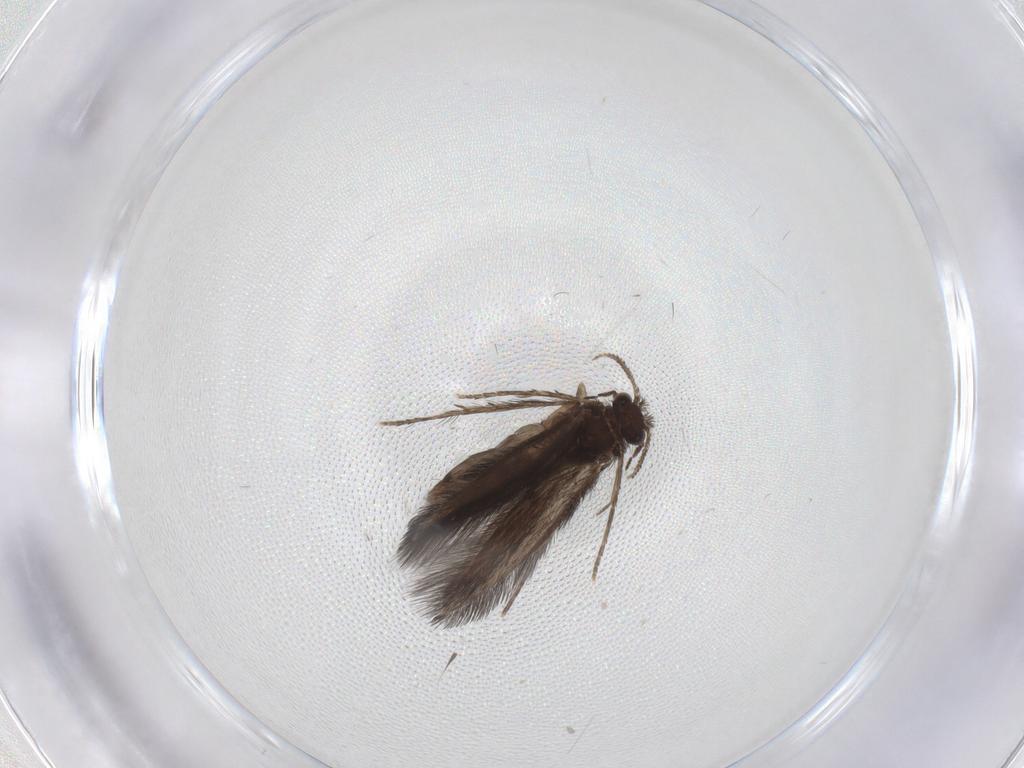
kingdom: Animalia
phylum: Arthropoda
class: Insecta
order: Trichoptera
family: Hydroptilidae
